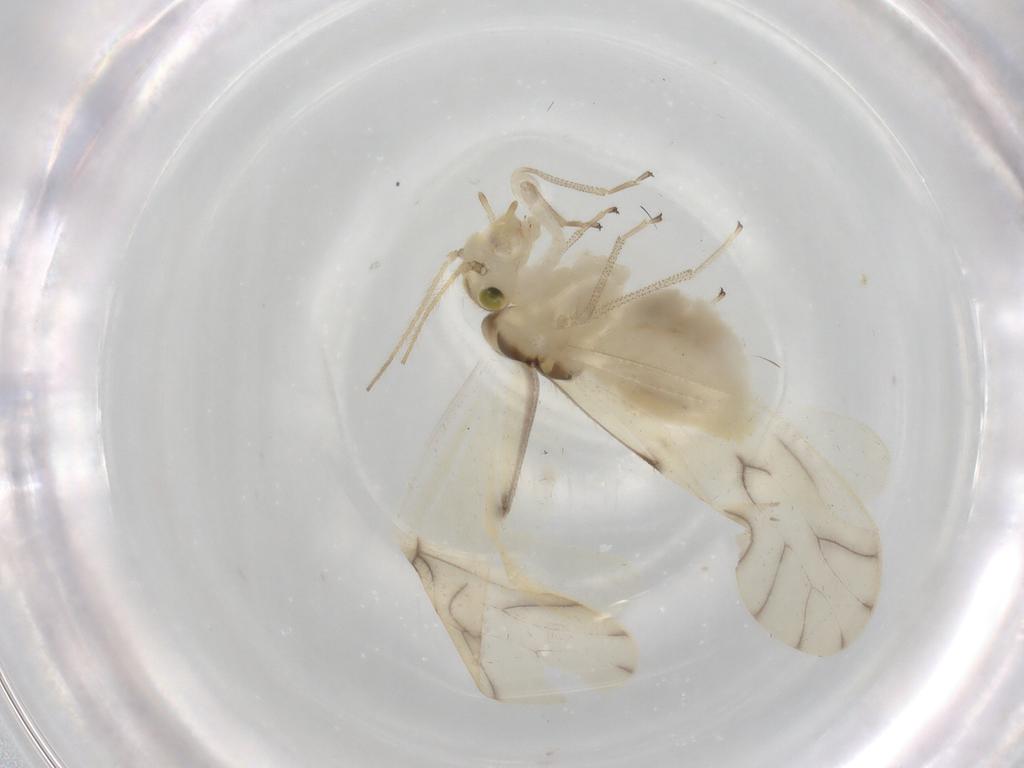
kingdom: Animalia
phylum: Arthropoda
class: Insecta
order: Psocodea
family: Caeciliusidae
